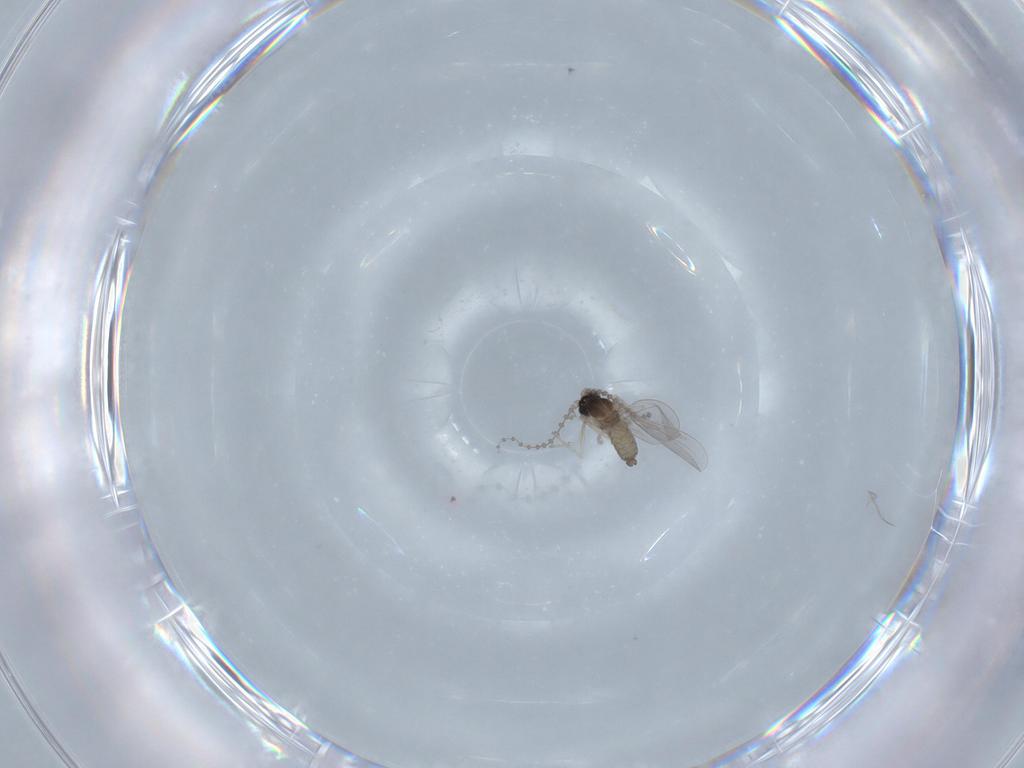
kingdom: Animalia
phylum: Arthropoda
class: Insecta
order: Diptera
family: Cecidomyiidae
